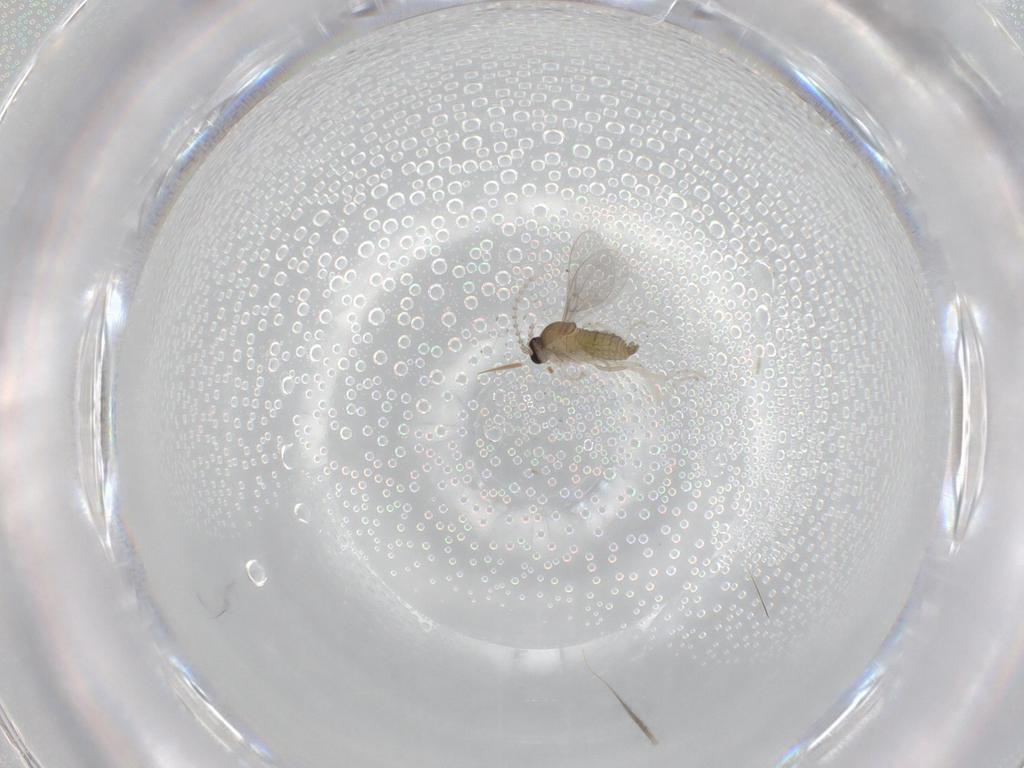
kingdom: Animalia
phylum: Arthropoda
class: Insecta
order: Diptera
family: Cecidomyiidae
